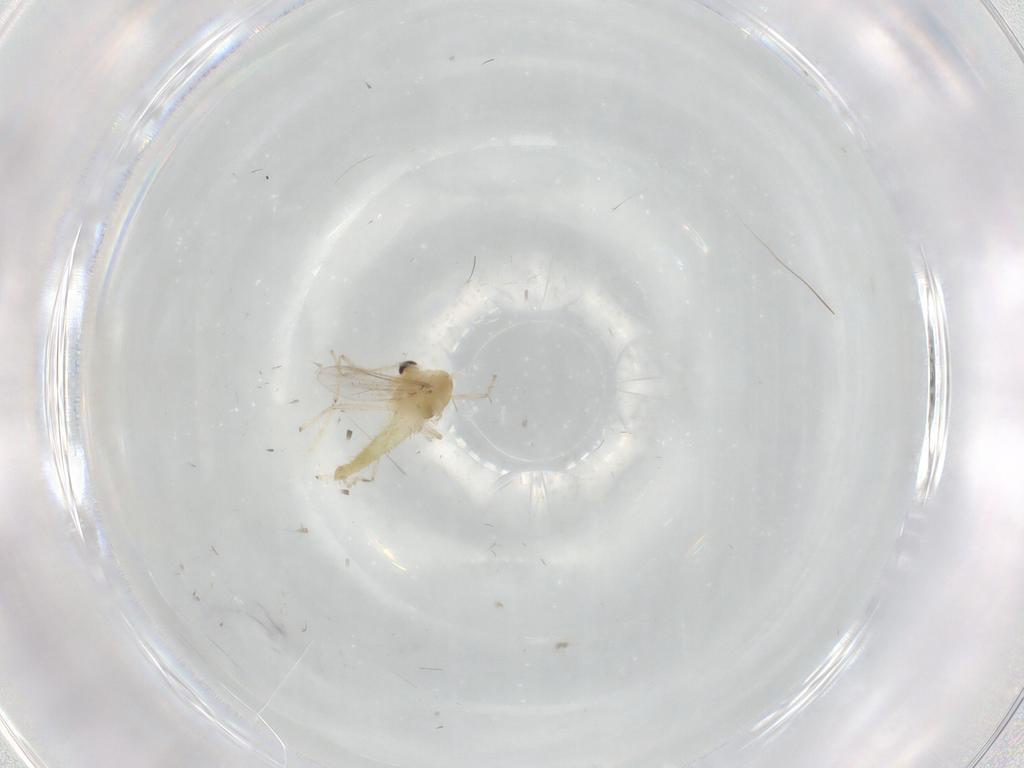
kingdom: Animalia
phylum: Arthropoda
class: Insecta
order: Diptera
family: Chironomidae
